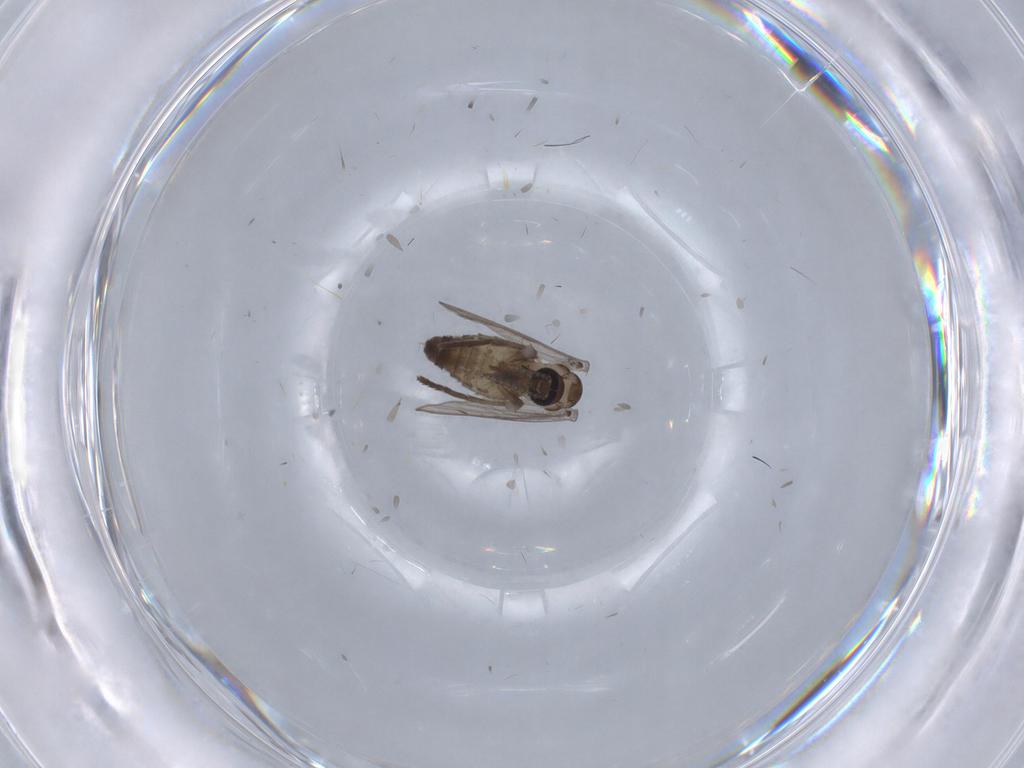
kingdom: Animalia
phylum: Arthropoda
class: Insecta
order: Diptera
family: Psychodidae
